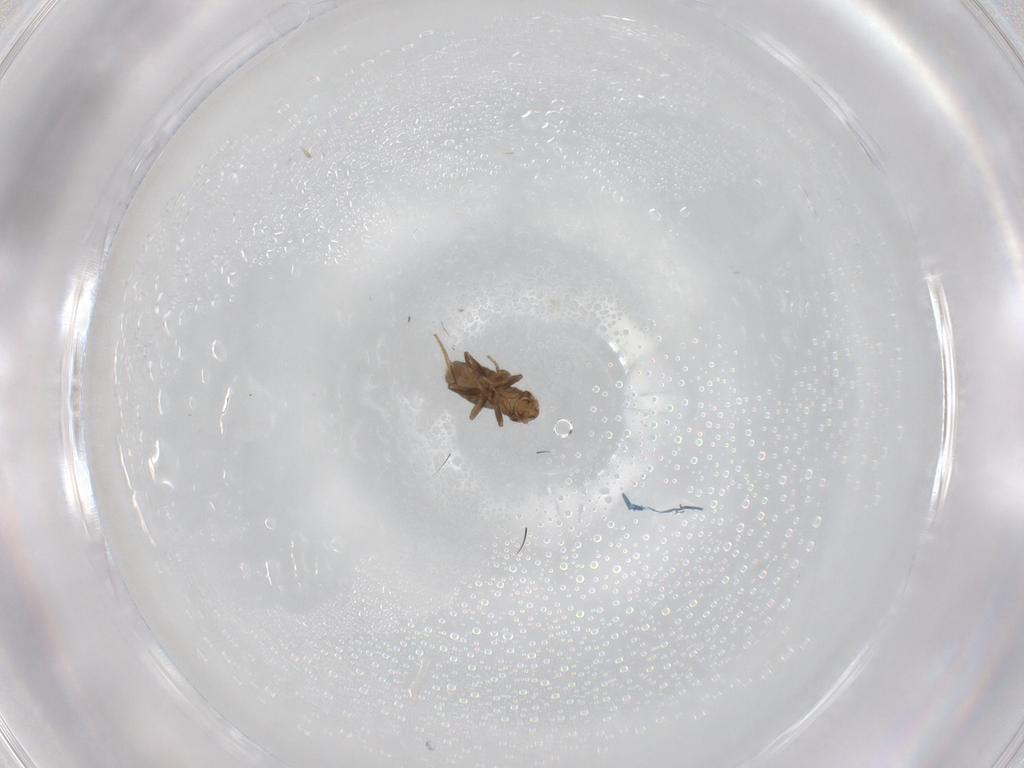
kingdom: Animalia
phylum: Arthropoda
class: Insecta
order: Diptera
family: Phoridae
